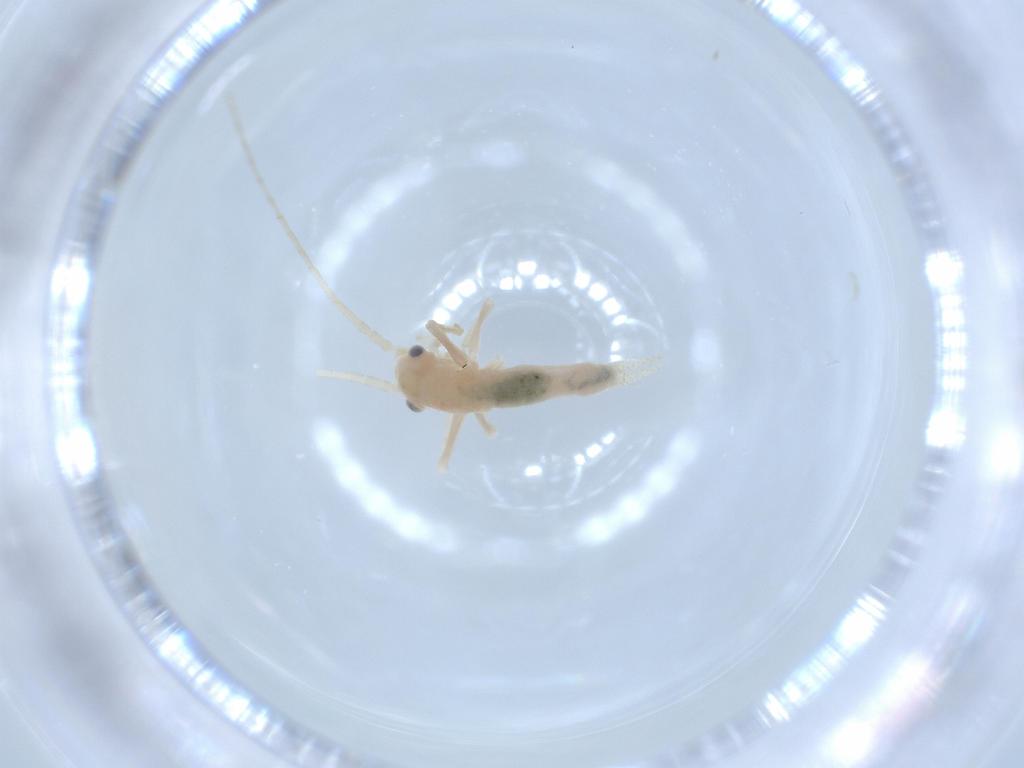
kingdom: Animalia
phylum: Arthropoda
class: Insecta
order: Orthoptera
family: Trigonidiidae
